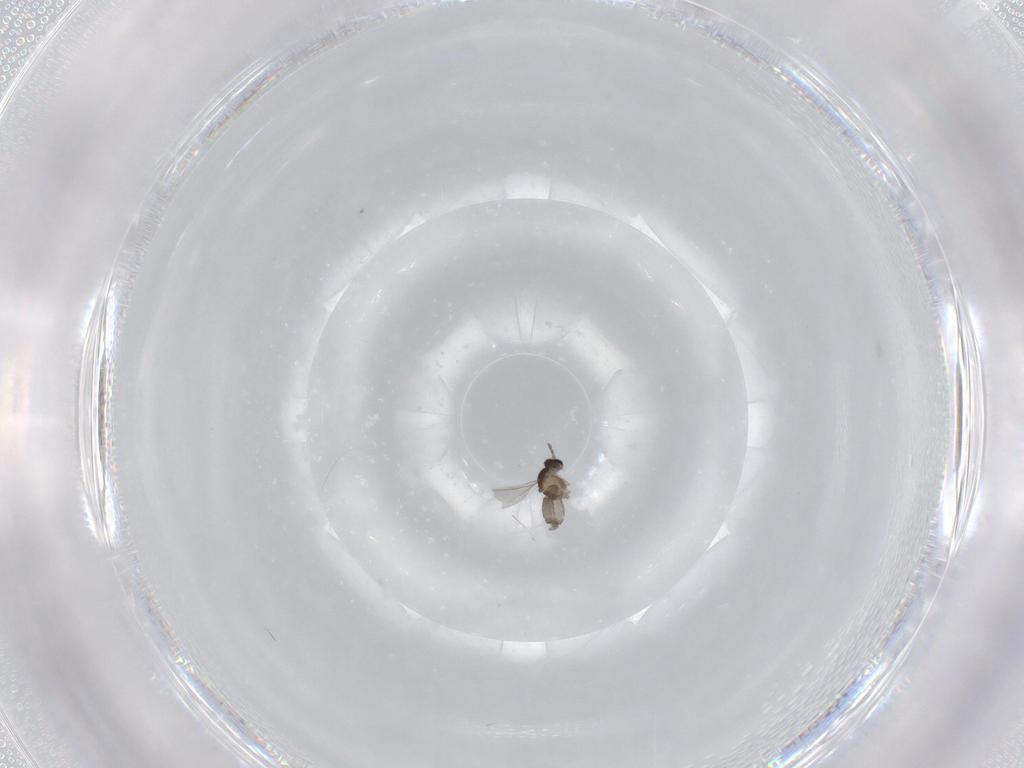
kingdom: Animalia
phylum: Arthropoda
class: Insecta
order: Diptera
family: Cecidomyiidae
